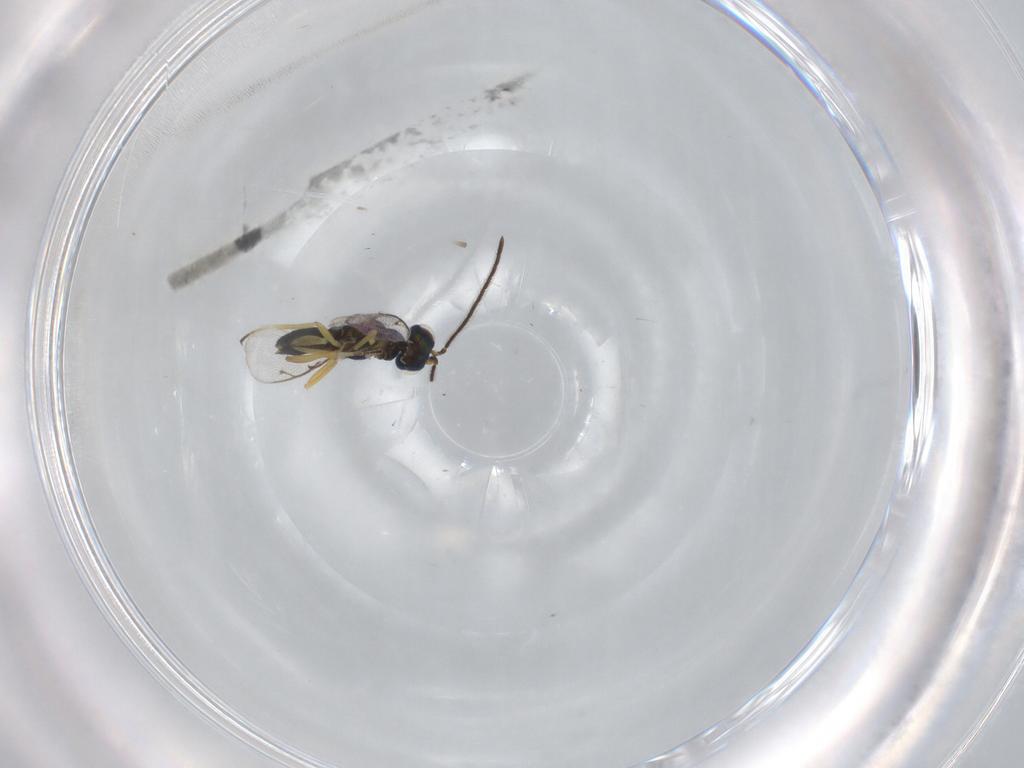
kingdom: Animalia
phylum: Arthropoda
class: Insecta
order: Hymenoptera
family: Eupelmidae
